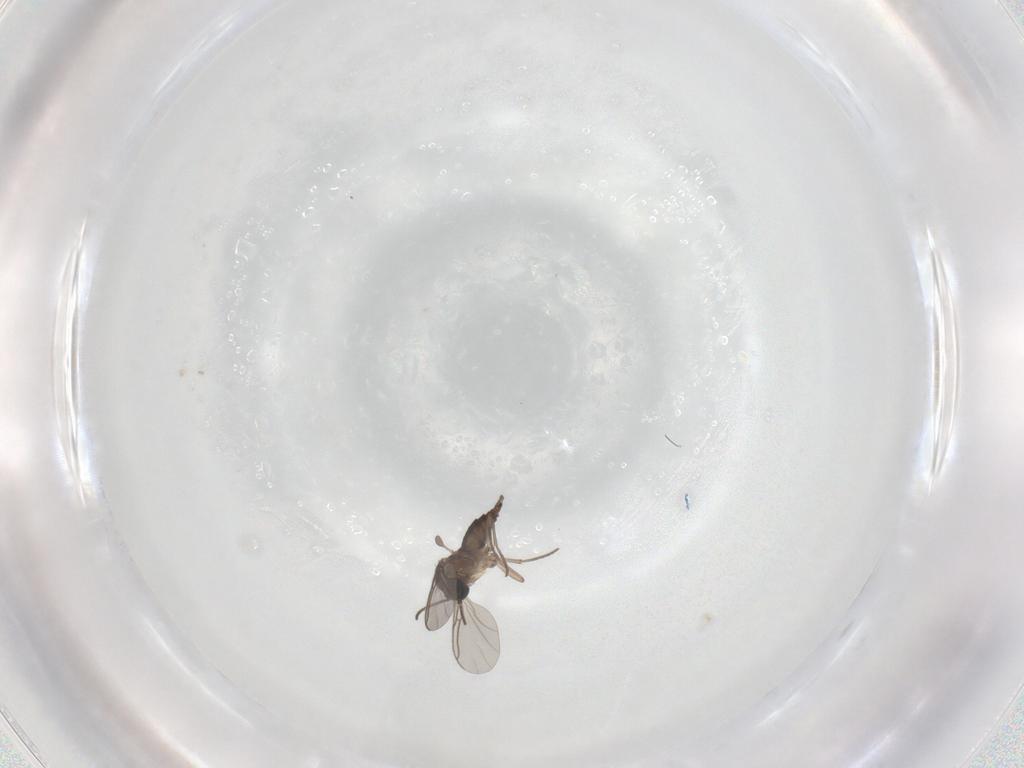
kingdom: Animalia
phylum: Arthropoda
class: Insecta
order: Diptera
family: Sciaridae
